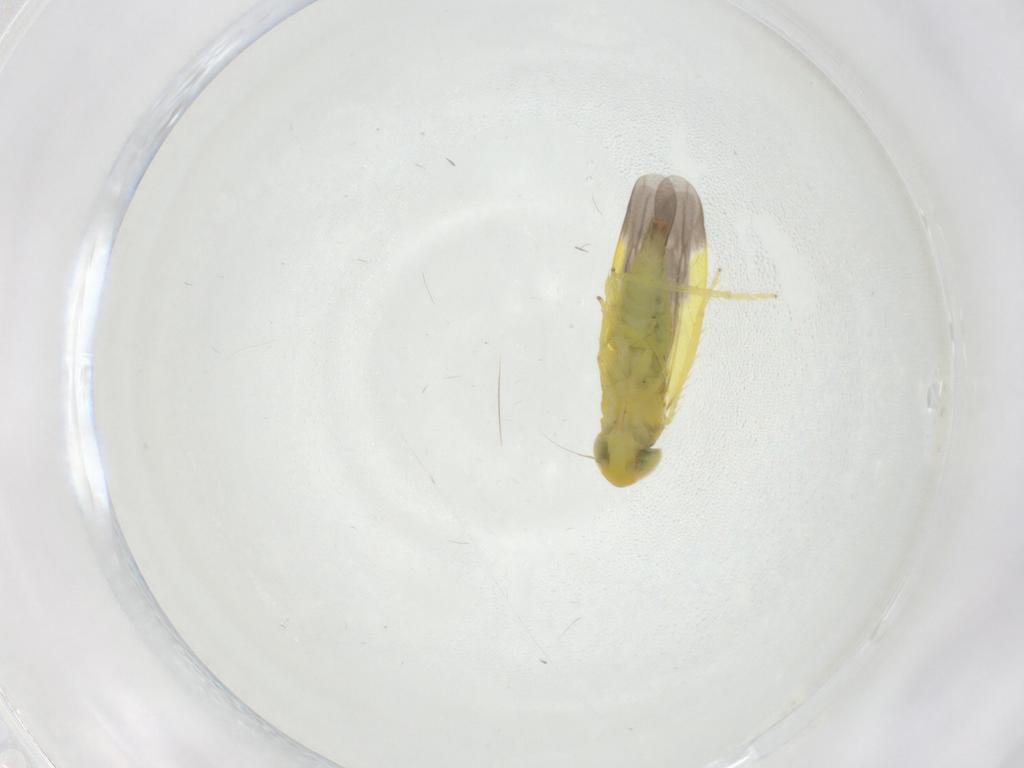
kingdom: Animalia
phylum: Arthropoda
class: Insecta
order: Hemiptera
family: Cicadellidae
